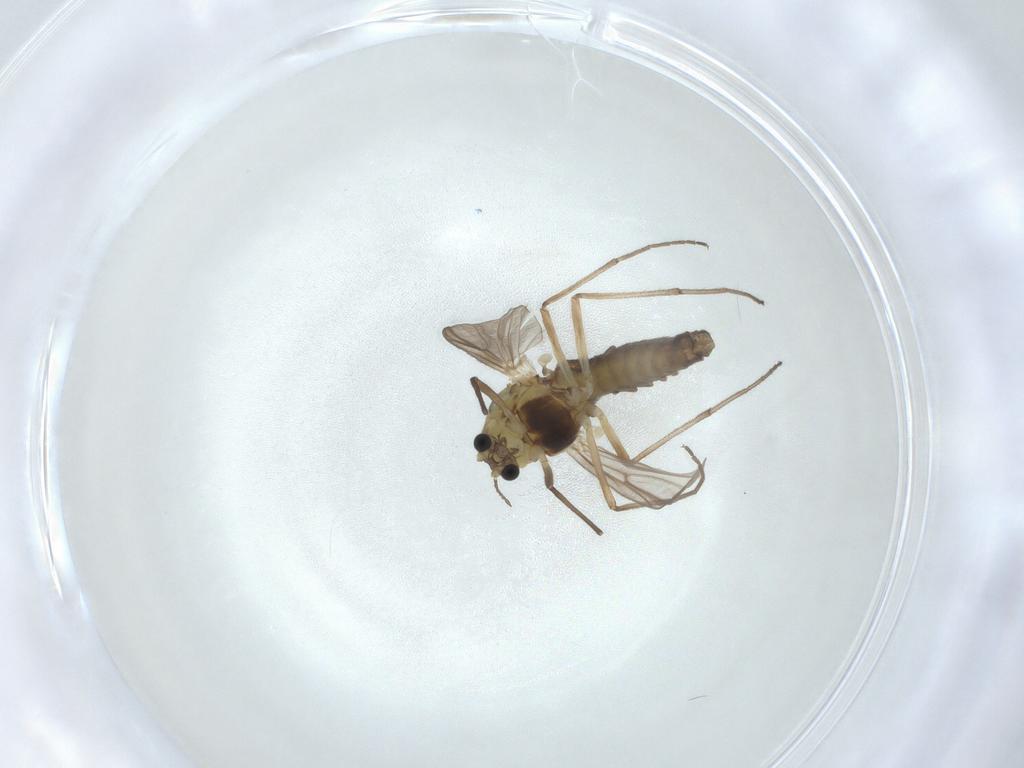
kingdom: Animalia
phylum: Arthropoda
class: Insecta
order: Diptera
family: Chironomidae
